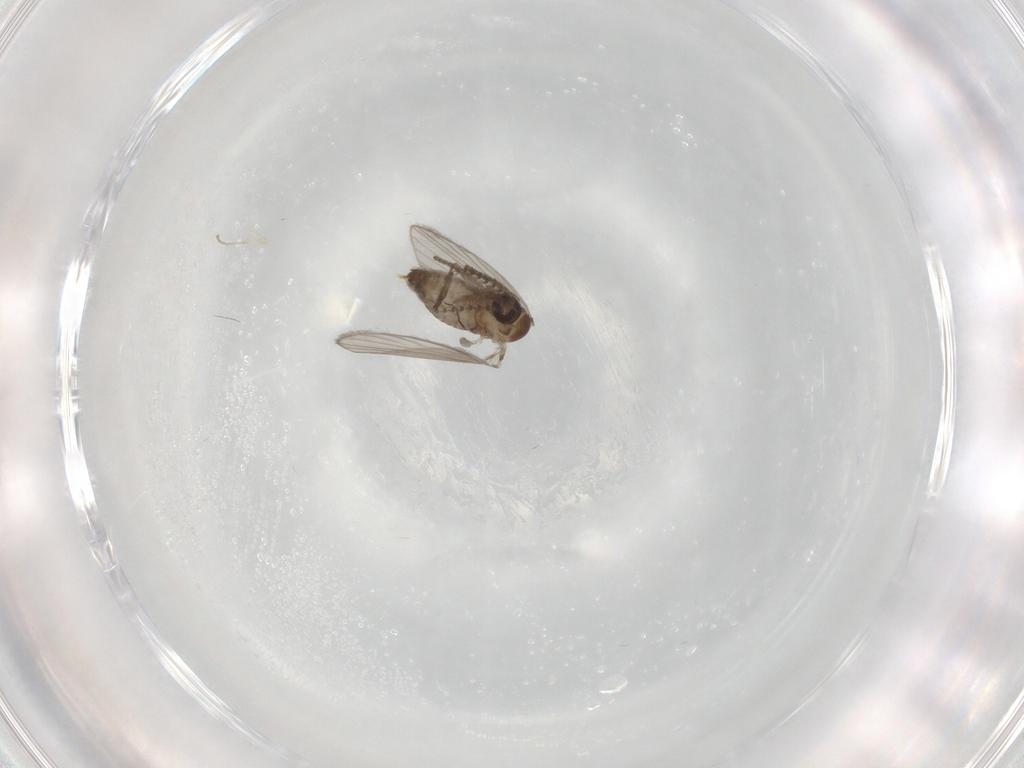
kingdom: Animalia
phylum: Arthropoda
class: Insecta
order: Diptera
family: Psychodidae
